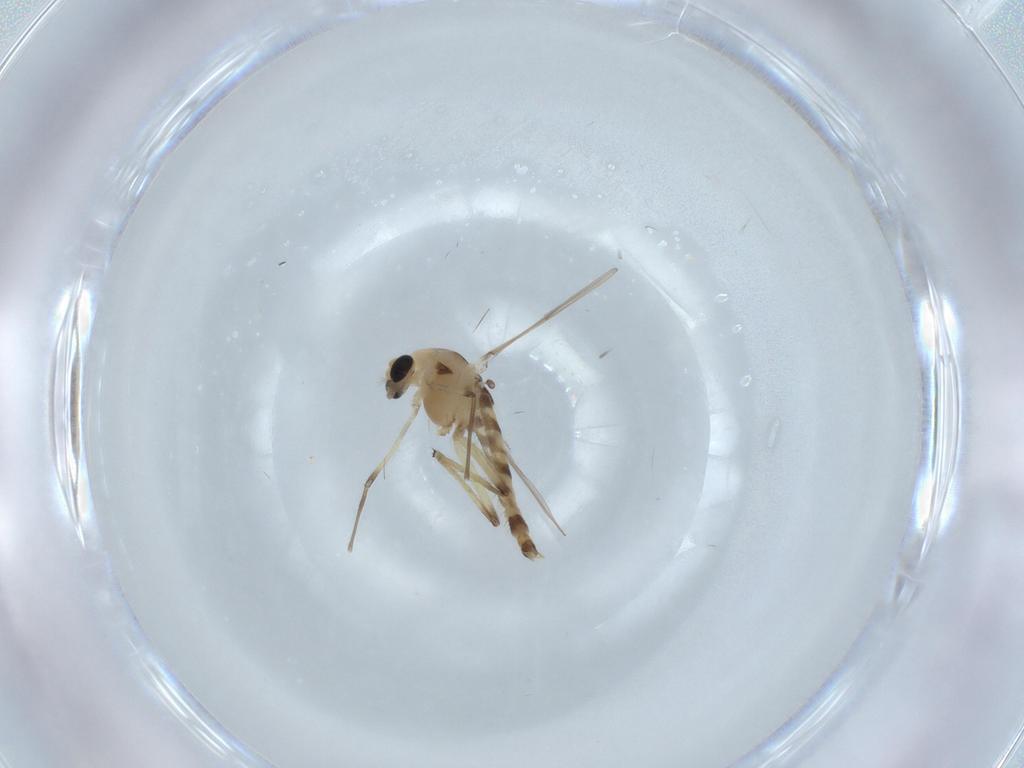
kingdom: Animalia
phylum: Arthropoda
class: Insecta
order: Diptera
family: Chironomidae
